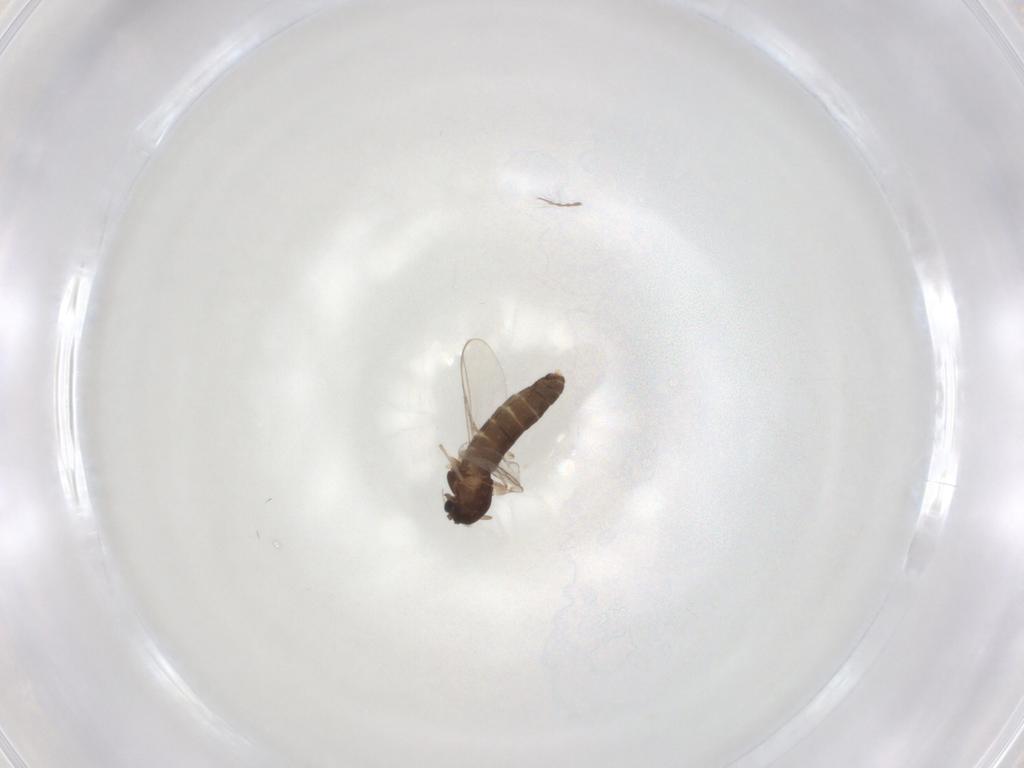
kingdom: Animalia
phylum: Arthropoda
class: Insecta
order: Diptera
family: Chironomidae
